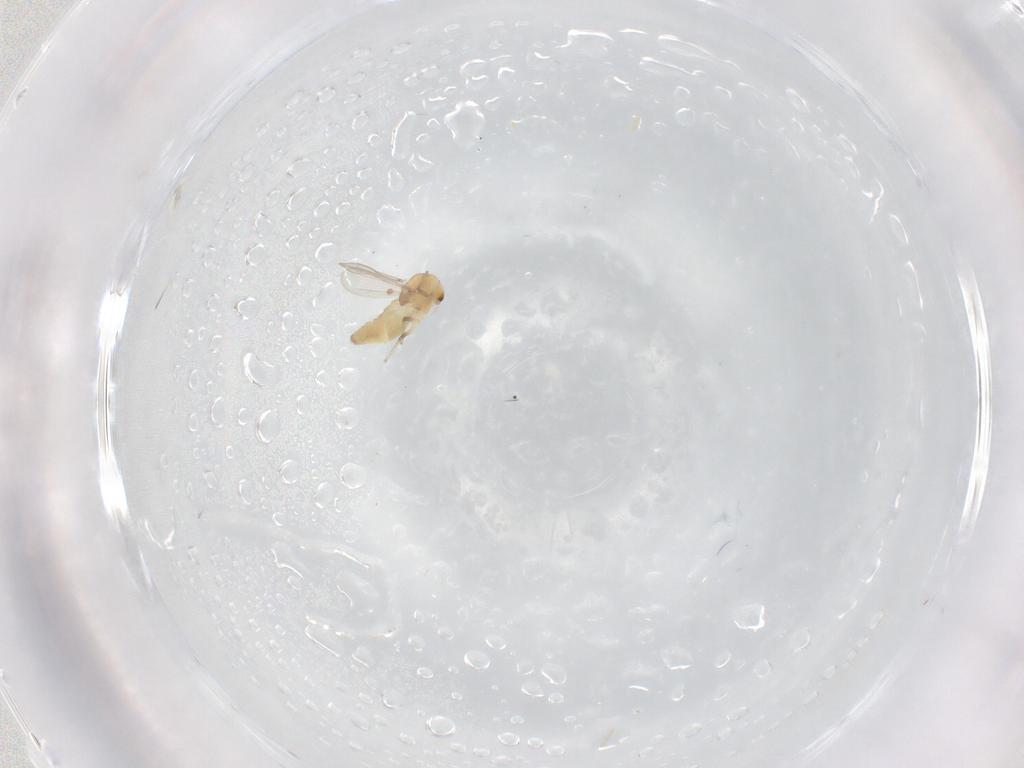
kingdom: Animalia
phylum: Arthropoda
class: Insecta
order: Diptera
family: Chironomidae
